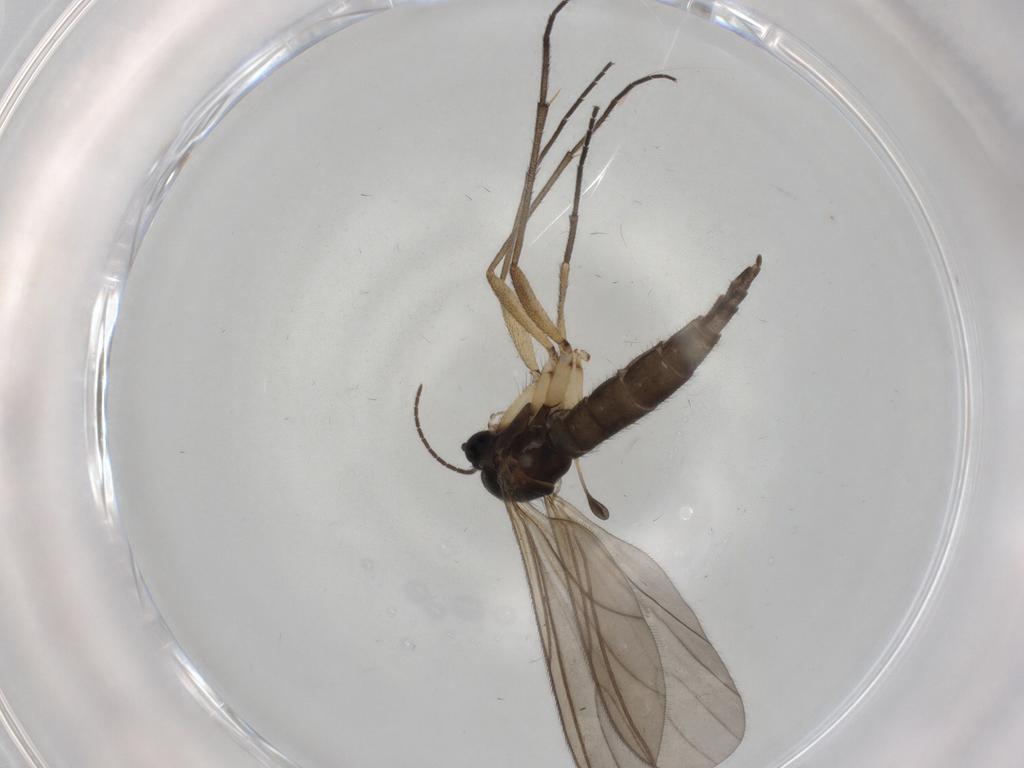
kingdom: Animalia
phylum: Arthropoda
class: Insecta
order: Diptera
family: Sciaridae
